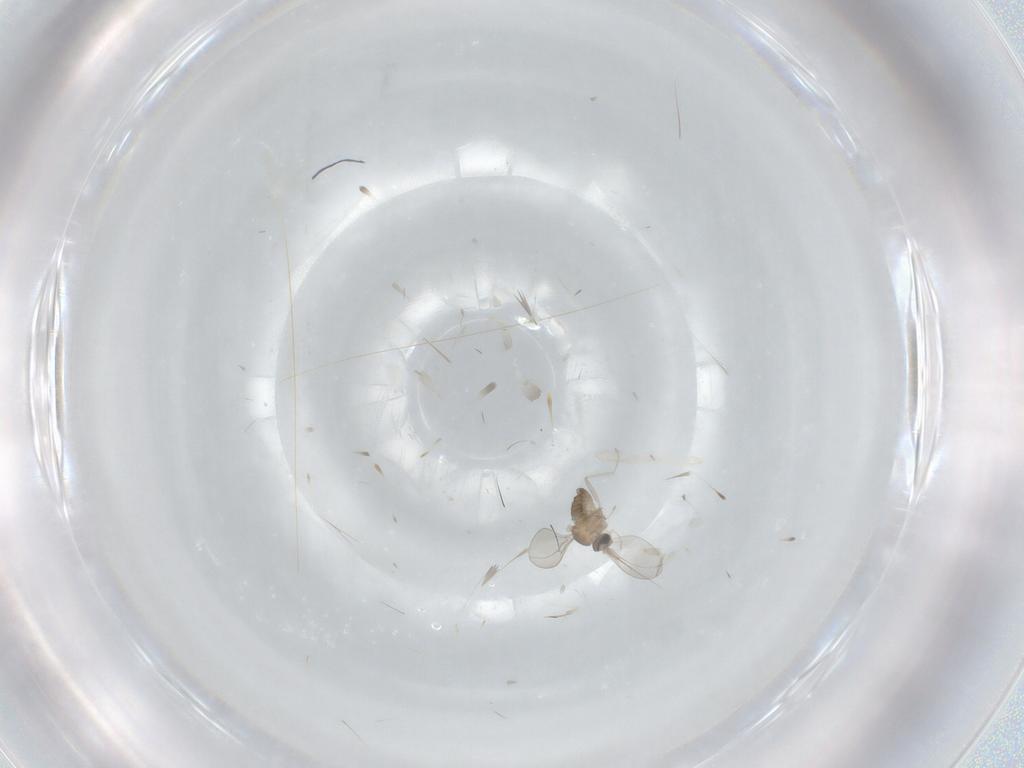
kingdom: Animalia
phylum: Arthropoda
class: Insecta
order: Diptera
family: Cecidomyiidae
